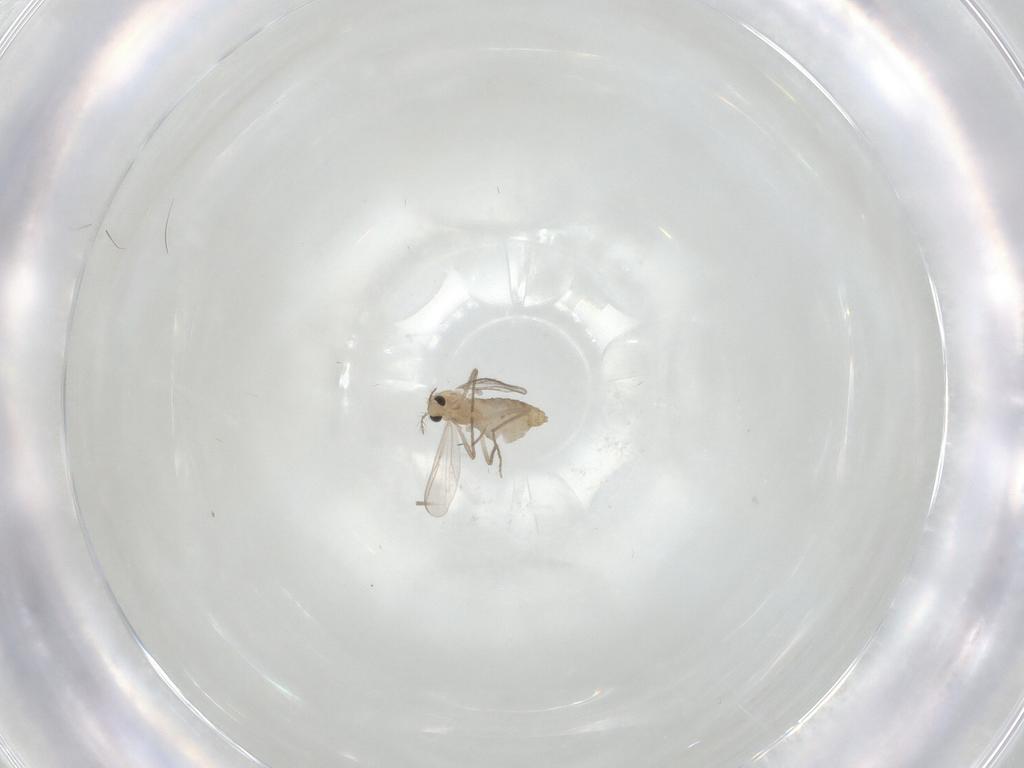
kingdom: Animalia
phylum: Arthropoda
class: Insecta
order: Diptera
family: Chironomidae
